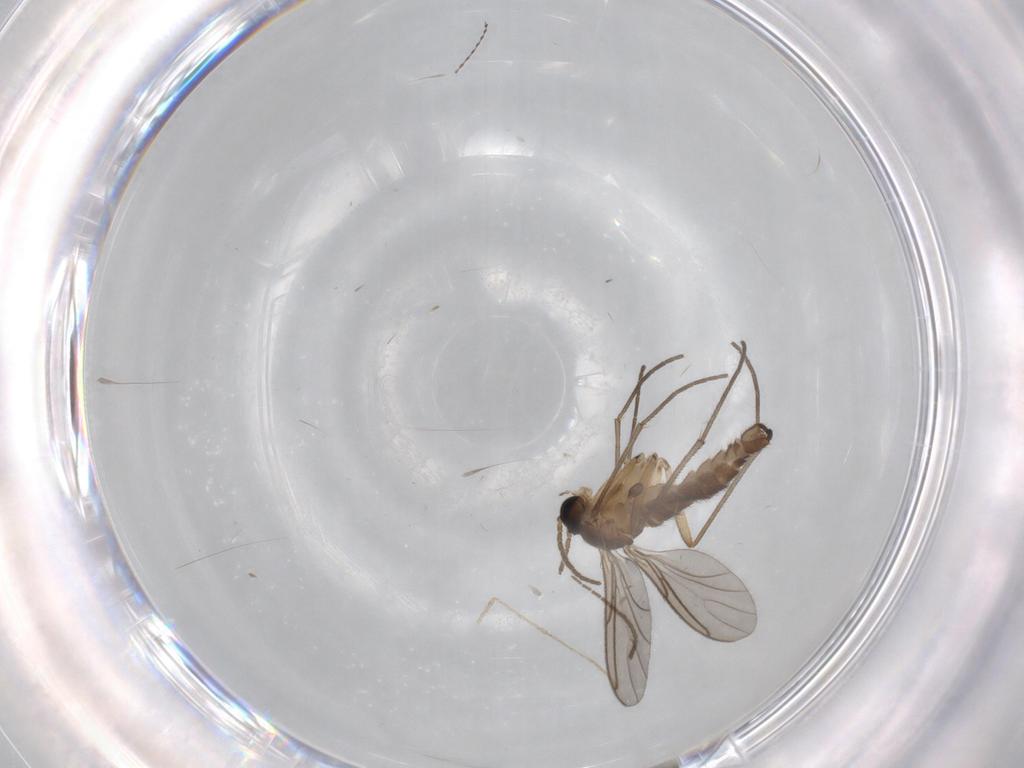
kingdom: Animalia
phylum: Arthropoda
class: Insecta
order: Diptera
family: Sciaridae
